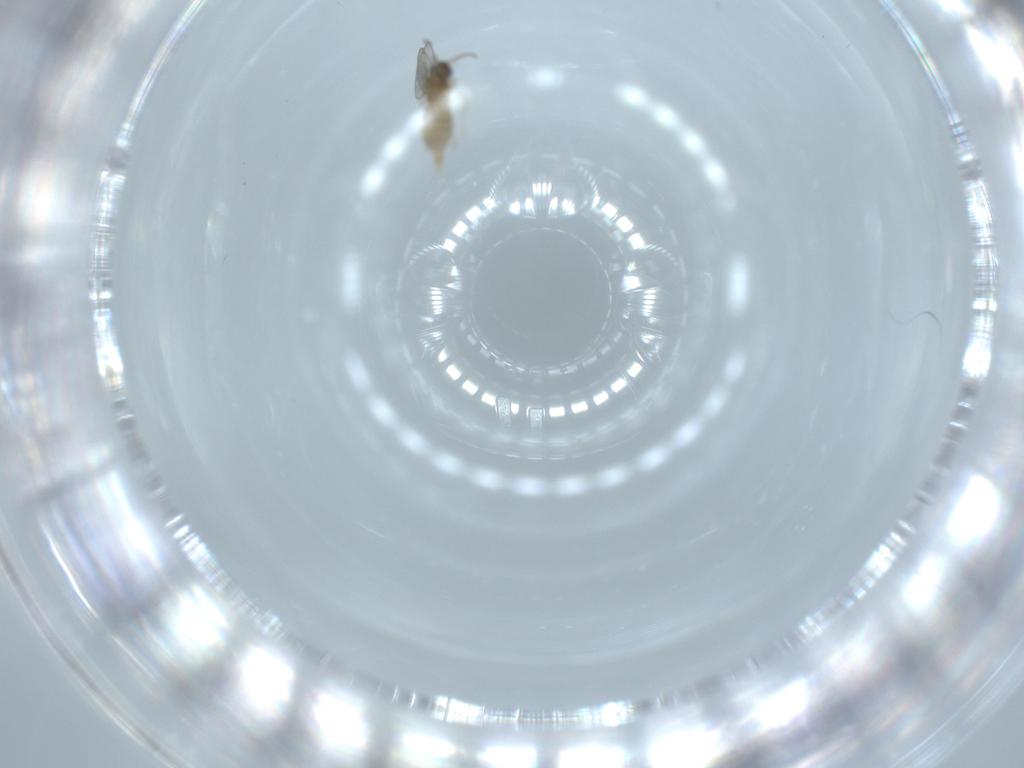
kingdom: Animalia
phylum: Arthropoda
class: Insecta
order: Diptera
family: Cecidomyiidae
